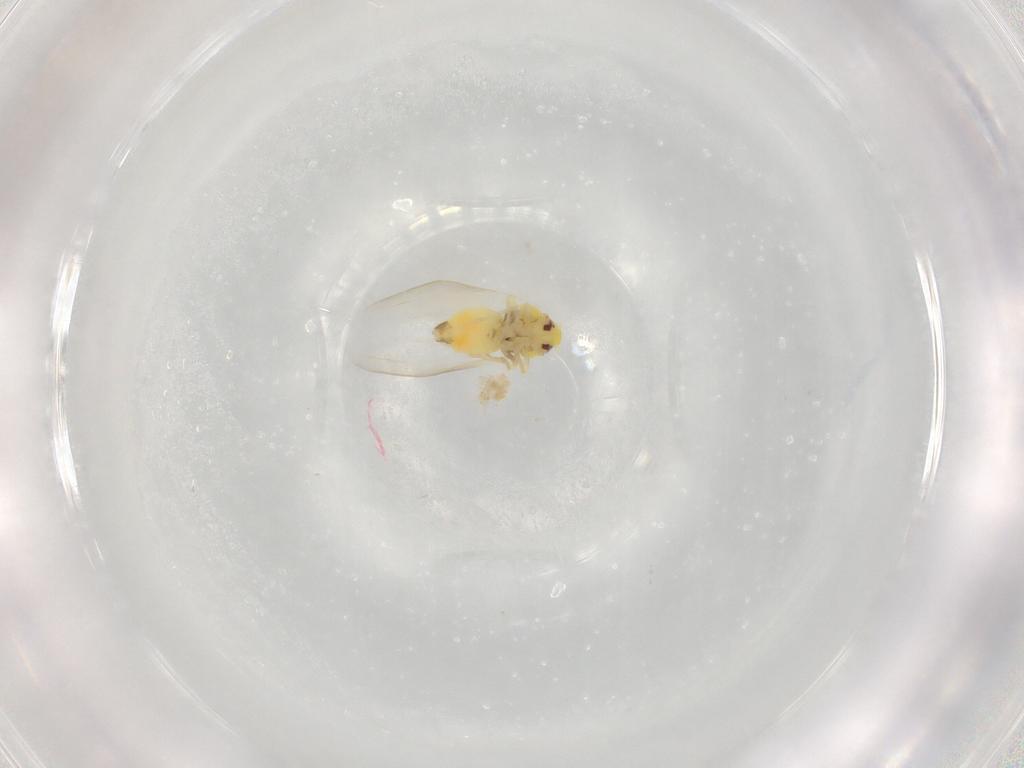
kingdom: Animalia
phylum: Arthropoda
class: Insecta
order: Hemiptera
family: Aleyrodidae
